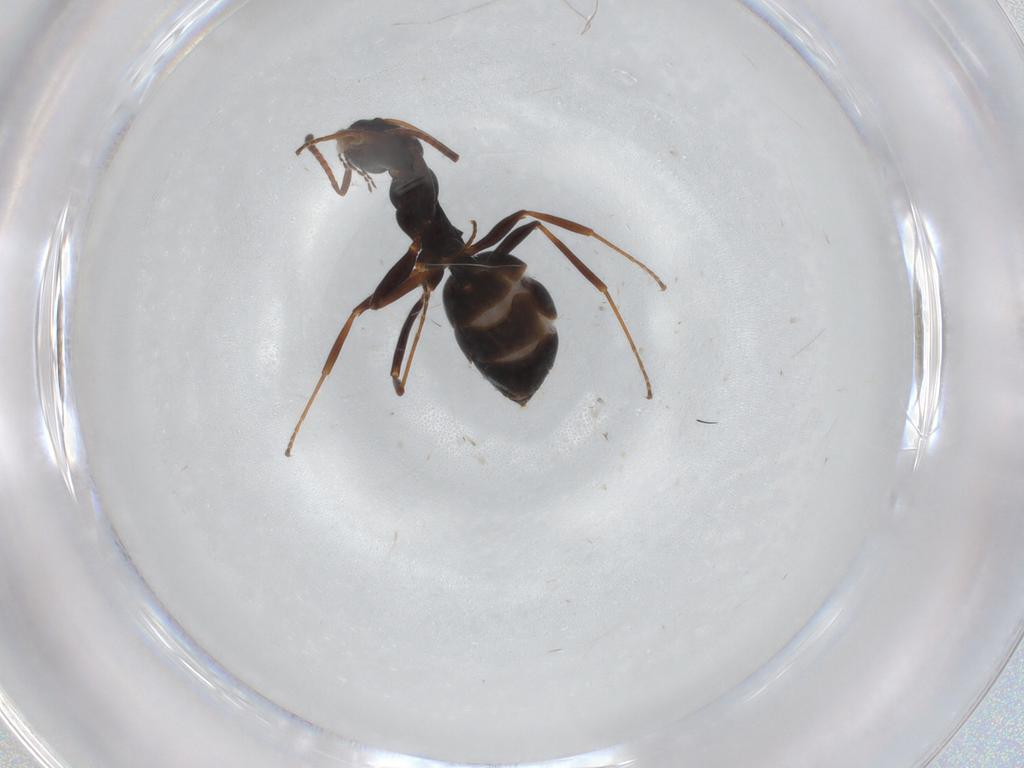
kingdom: Animalia
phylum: Arthropoda
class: Insecta
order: Hymenoptera
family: Formicidae
